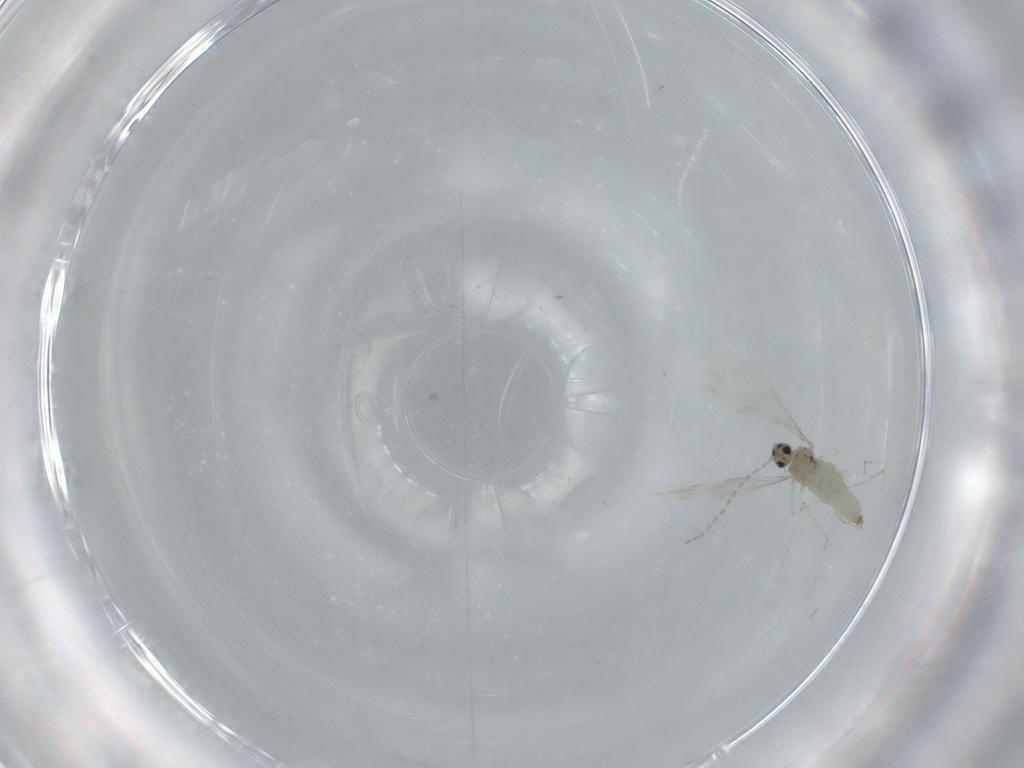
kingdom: Animalia
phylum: Arthropoda
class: Insecta
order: Diptera
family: Cecidomyiidae
